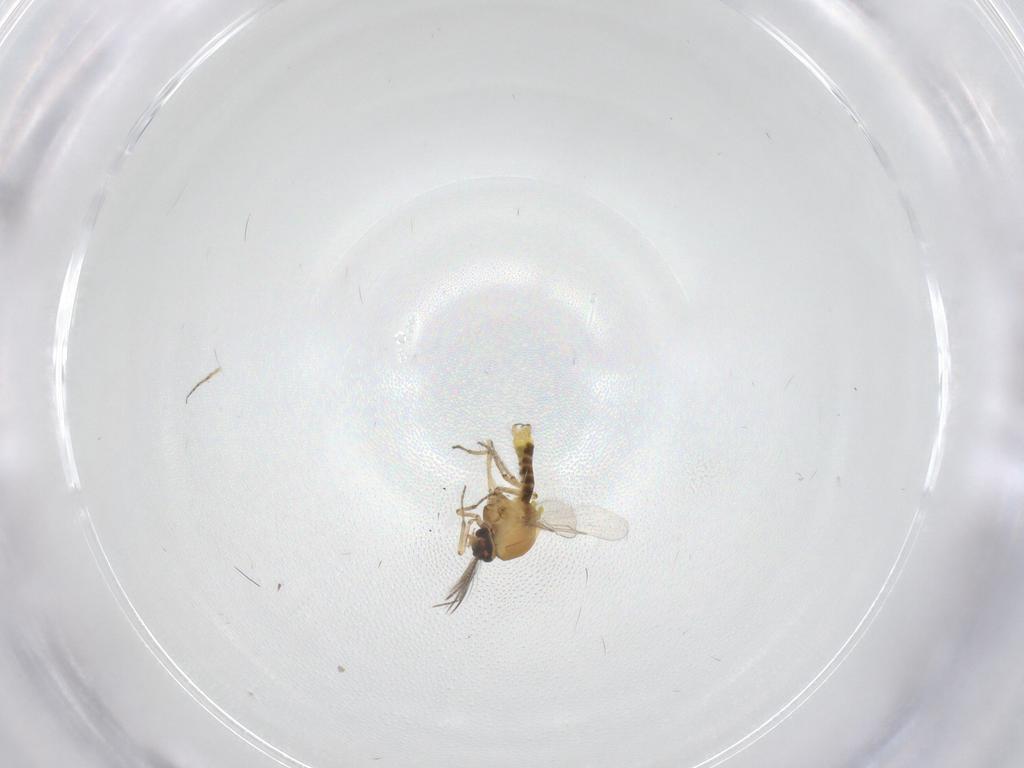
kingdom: Animalia
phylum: Arthropoda
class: Insecta
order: Diptera
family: Ceratopogonidae
